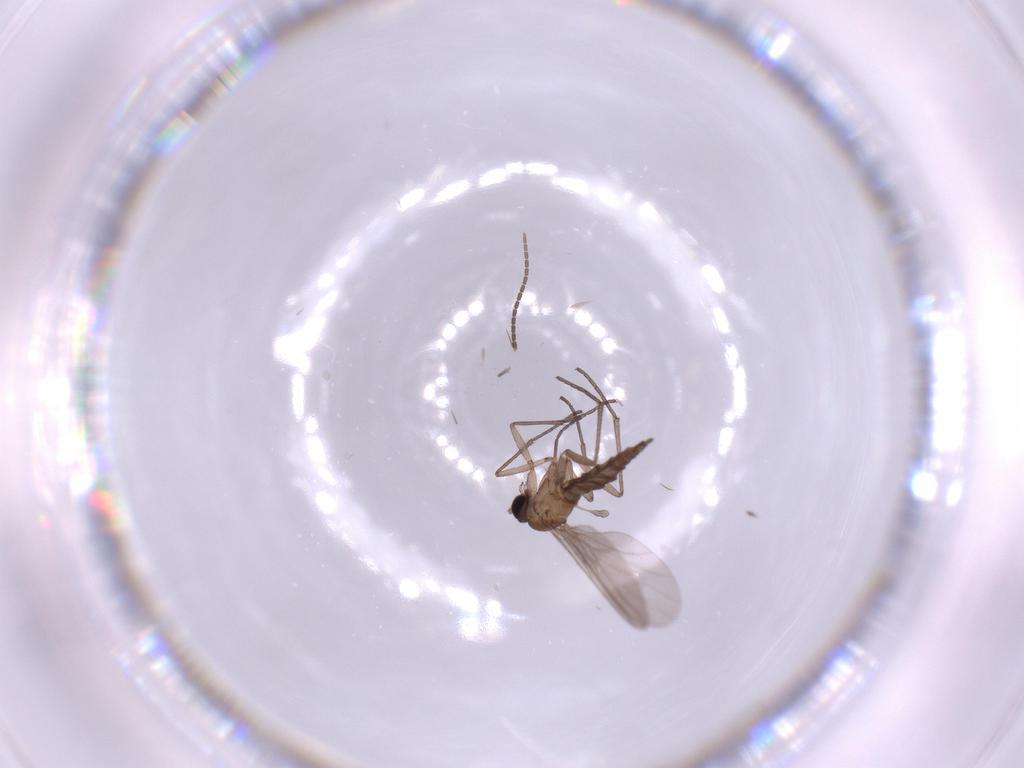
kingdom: Animalia
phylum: Arthropoda
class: Insecta
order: Diptera
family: Sciaridae
